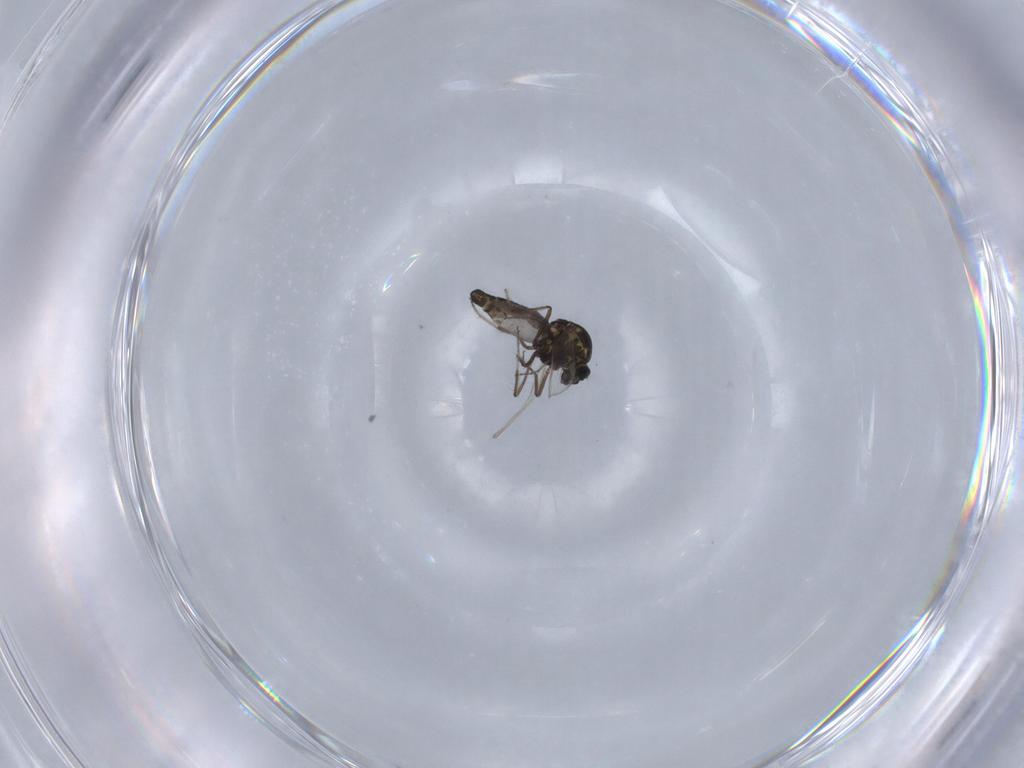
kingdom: Animalia
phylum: Arthropoda
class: Insecta
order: Diptera
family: Ceratopogonidae
